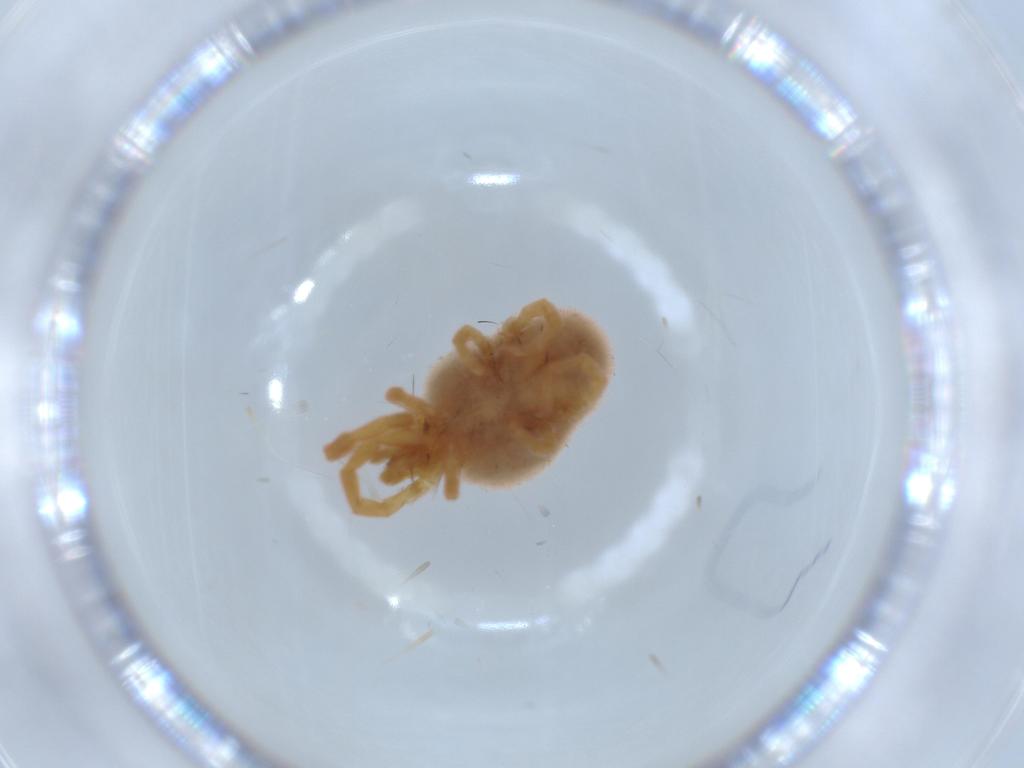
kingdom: Animalia
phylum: Arthropoda
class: Arachnida
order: Trombidiformes
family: Trombidiidae
